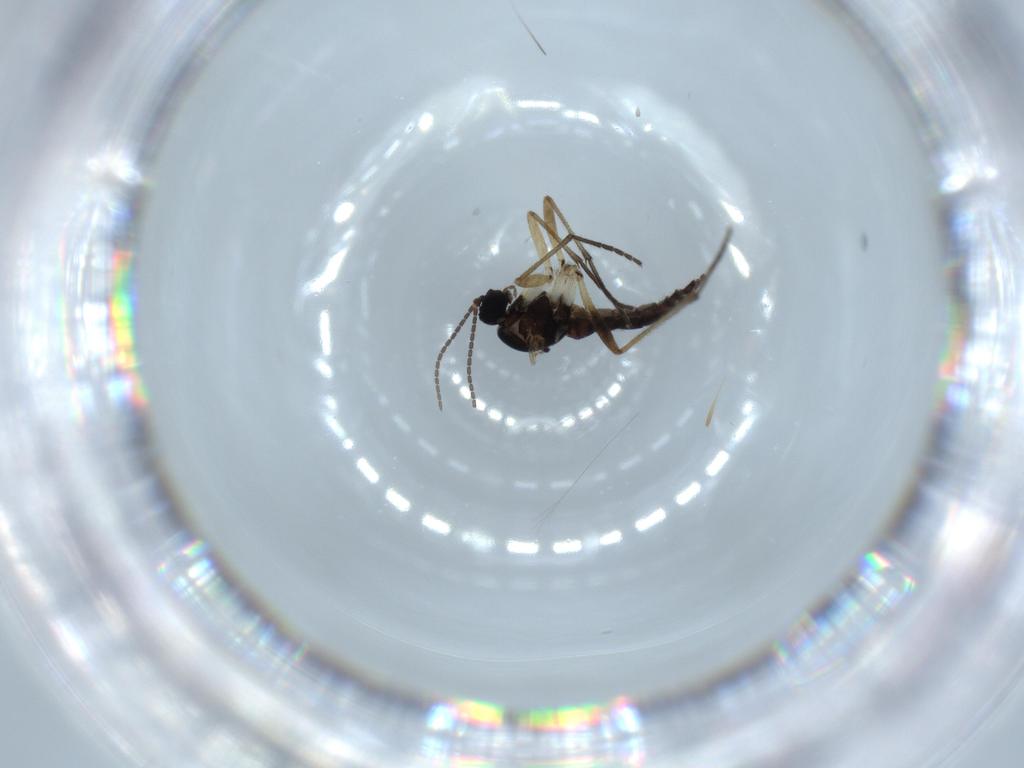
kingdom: Animalia
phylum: Arthropoda
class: Insecta
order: Diptera
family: Sciaridae
